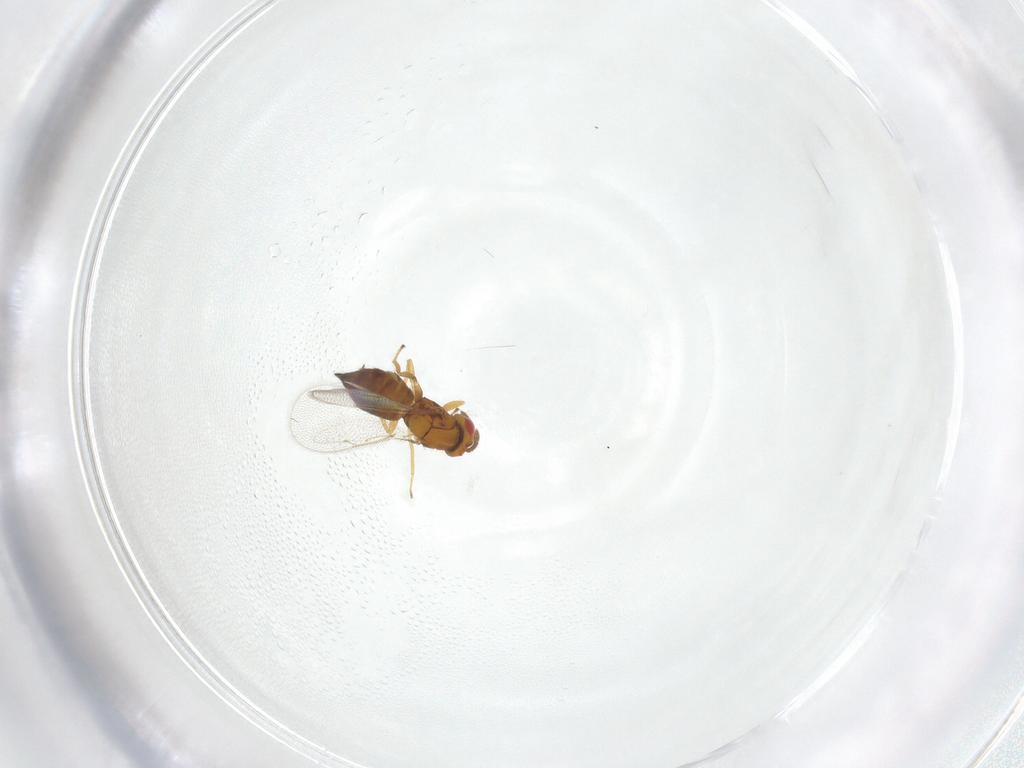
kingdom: Animalia
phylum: Arthropoda
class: Insecta
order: Hymenoptera
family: Eulophidae
